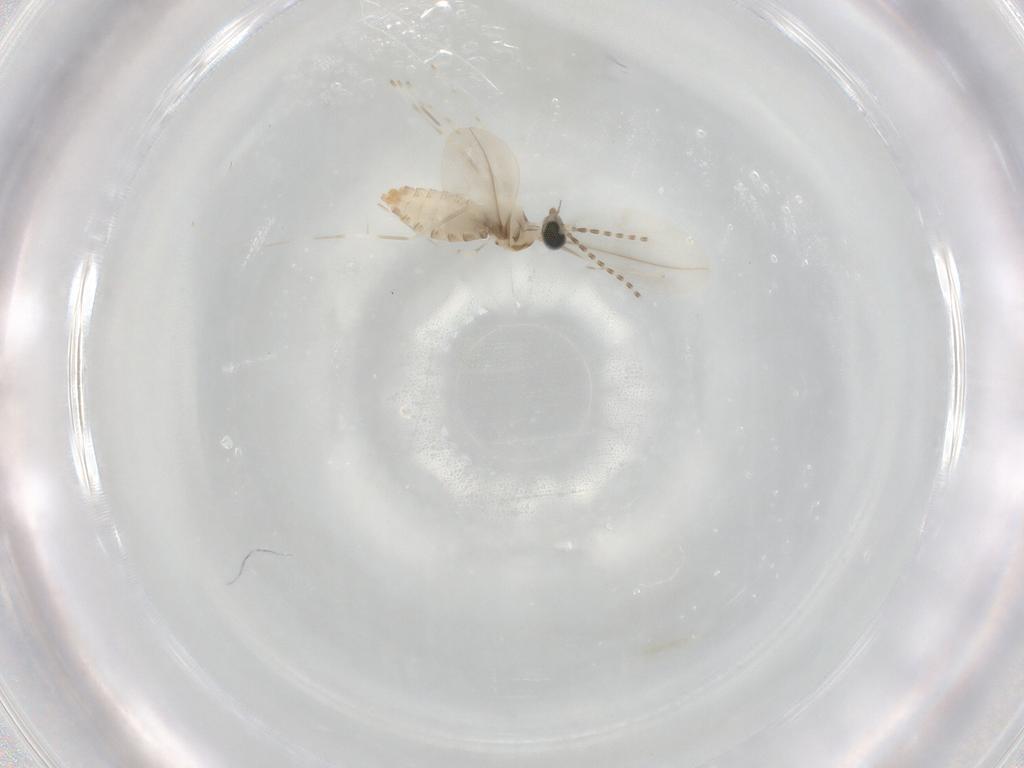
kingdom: Animalia
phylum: Arthropoda
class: Insecta
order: Diptera
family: Cecidomyiidae
